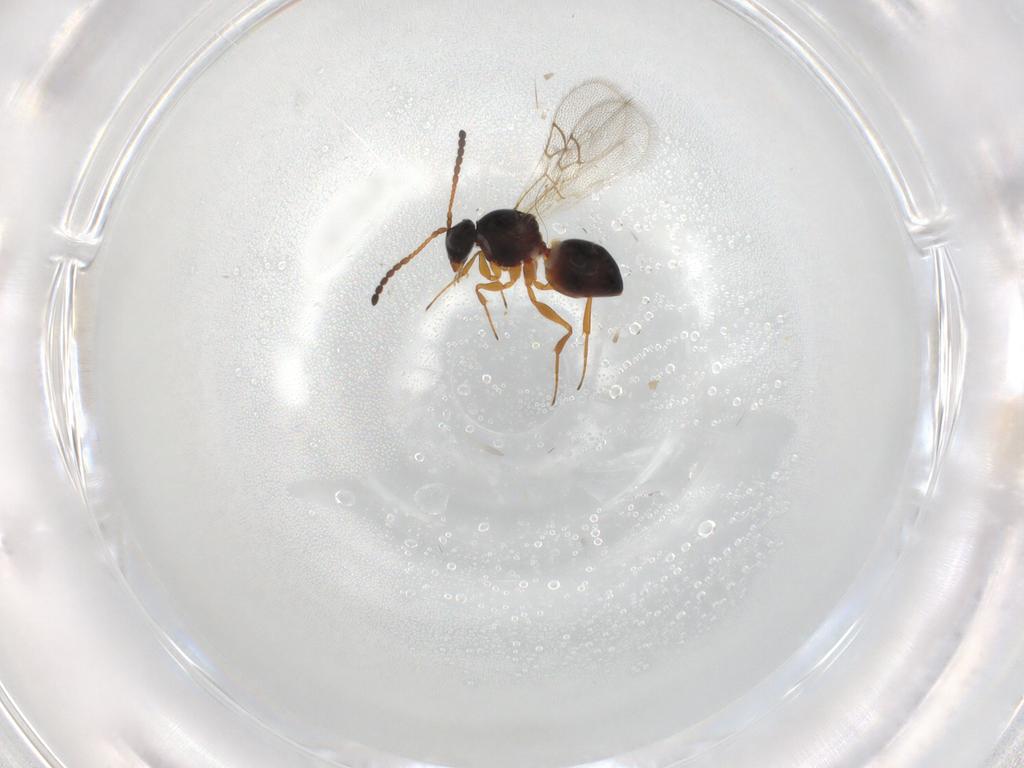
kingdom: Animalia
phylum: Arthropoda
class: Insecta
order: Hymenoptera
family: Figitidae
